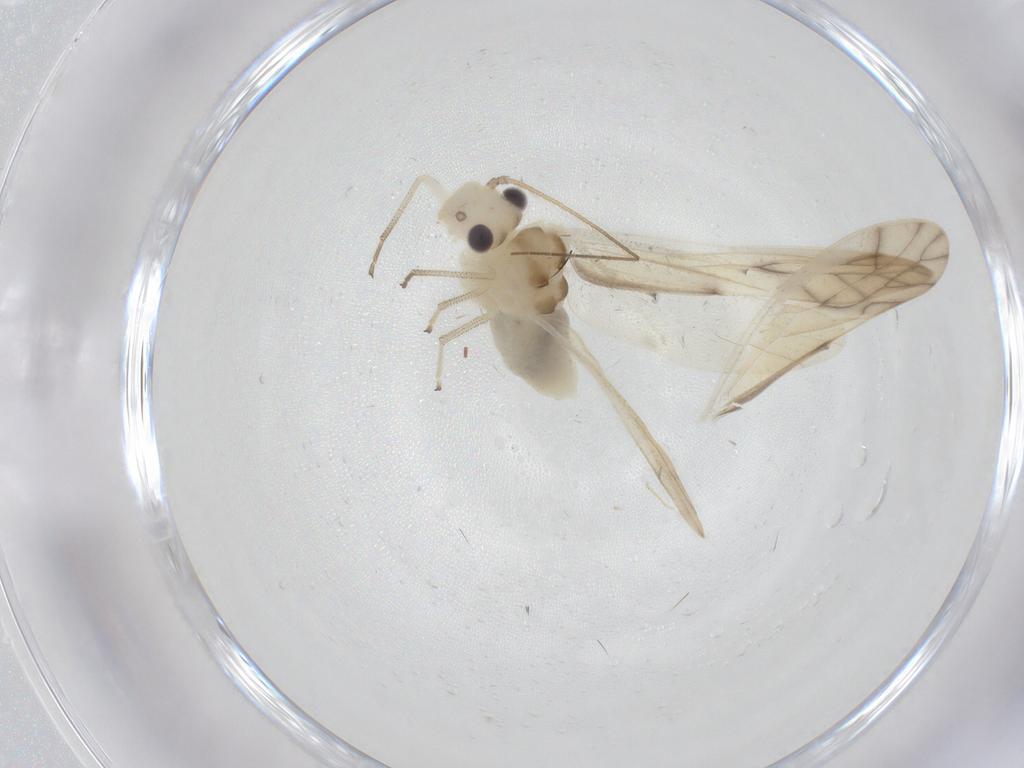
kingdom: Animalia
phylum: Arthropoda
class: Insecta
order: Psocodea
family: Caeciliusidae
